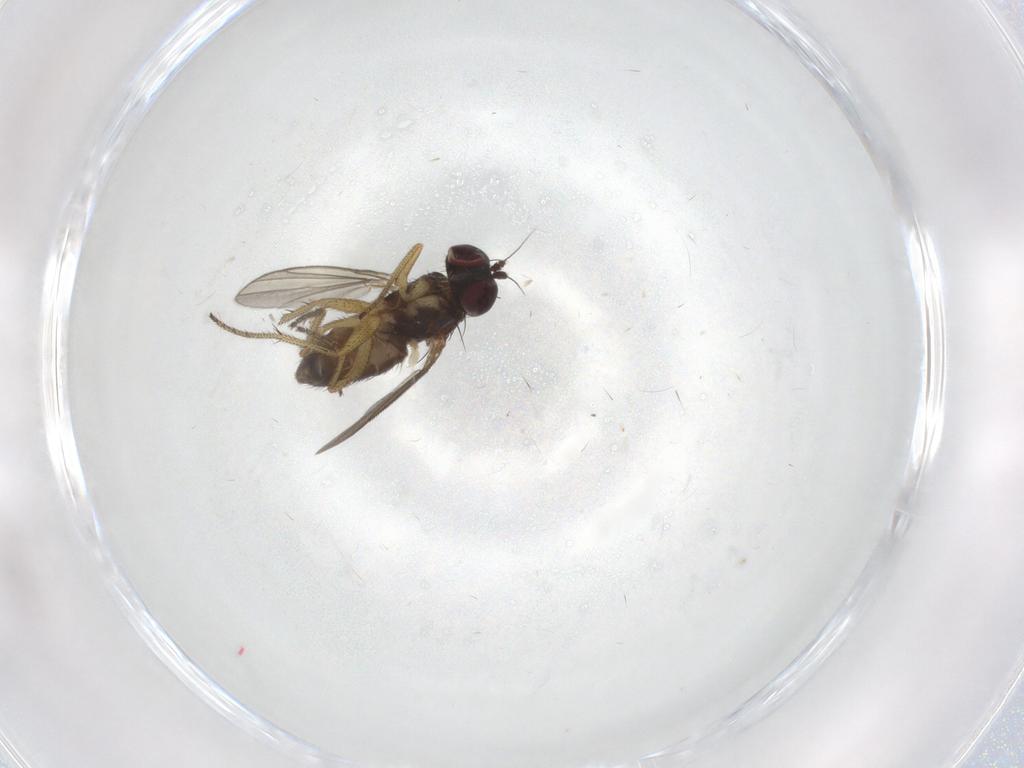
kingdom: Animalia
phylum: Arthropoda
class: Insecta
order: Diptera
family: Chironomidae
